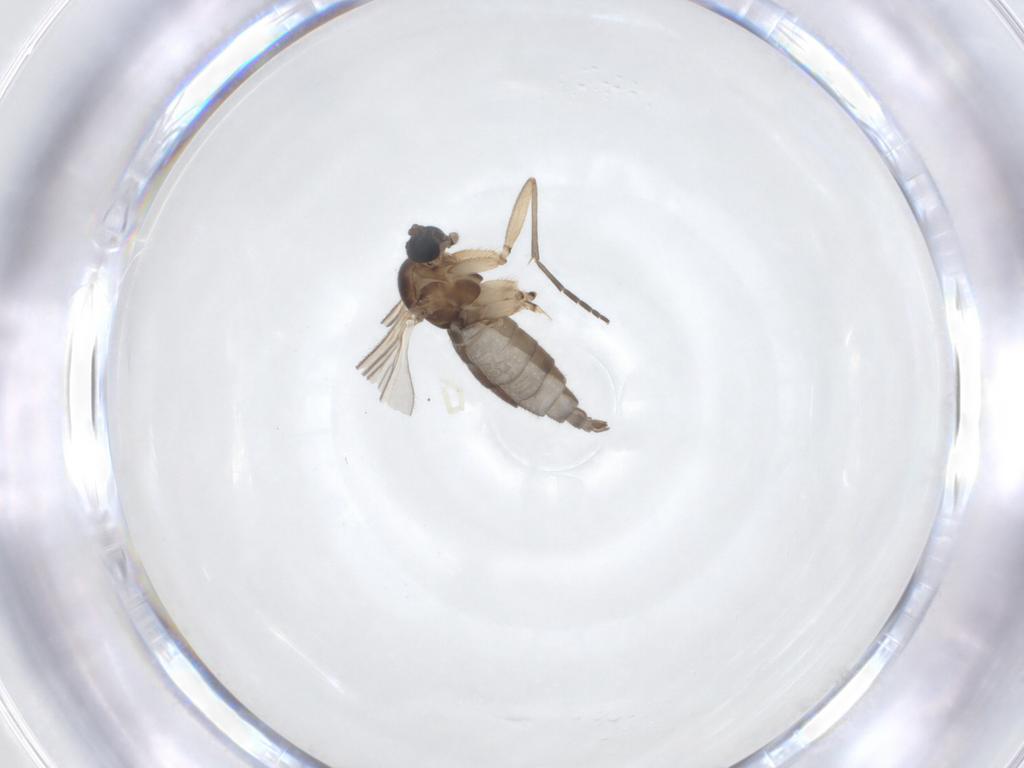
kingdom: Animalia
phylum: Arthropoda
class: Insecta
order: Diptera
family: Sciaridae
